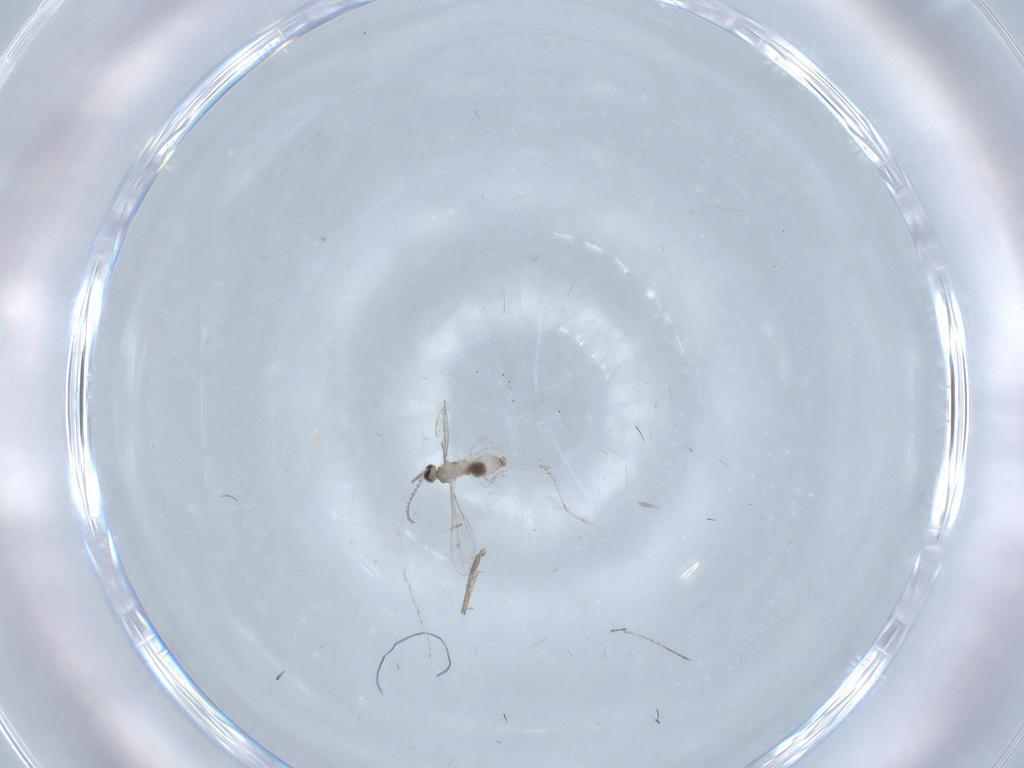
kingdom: Animalia
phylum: Arthropoda
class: Insecta
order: Diptera
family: Cecidomyiidae
